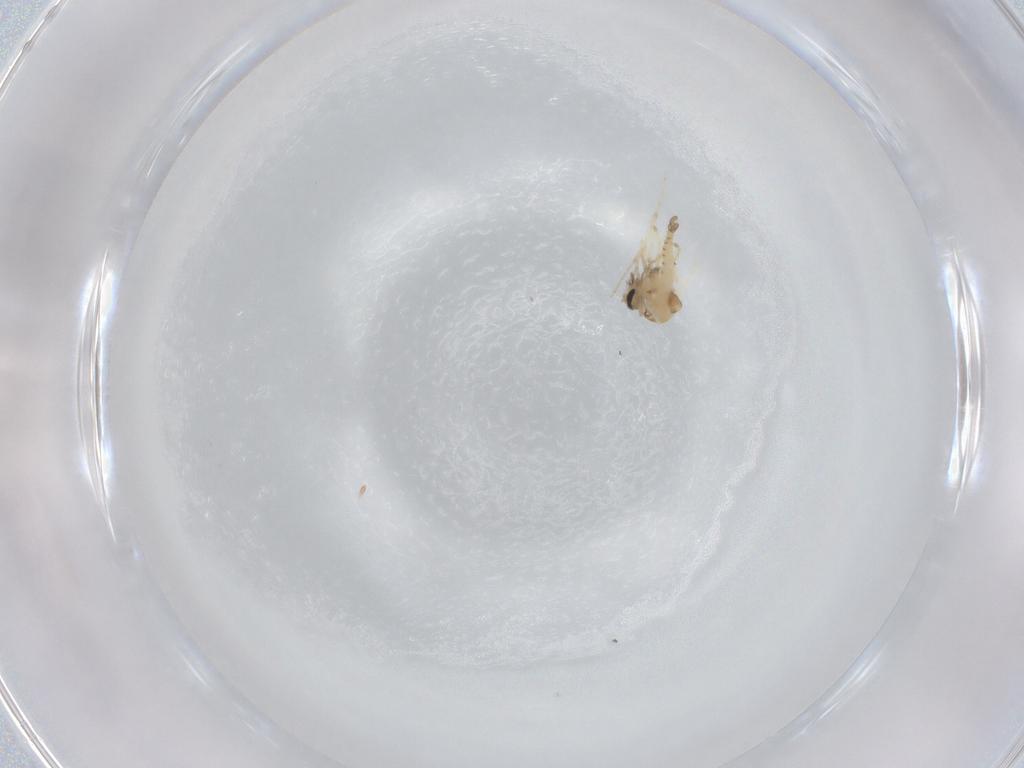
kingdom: Animalia
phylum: Arthropoda
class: Insecta
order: Diptera
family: Ceratopogonidae
